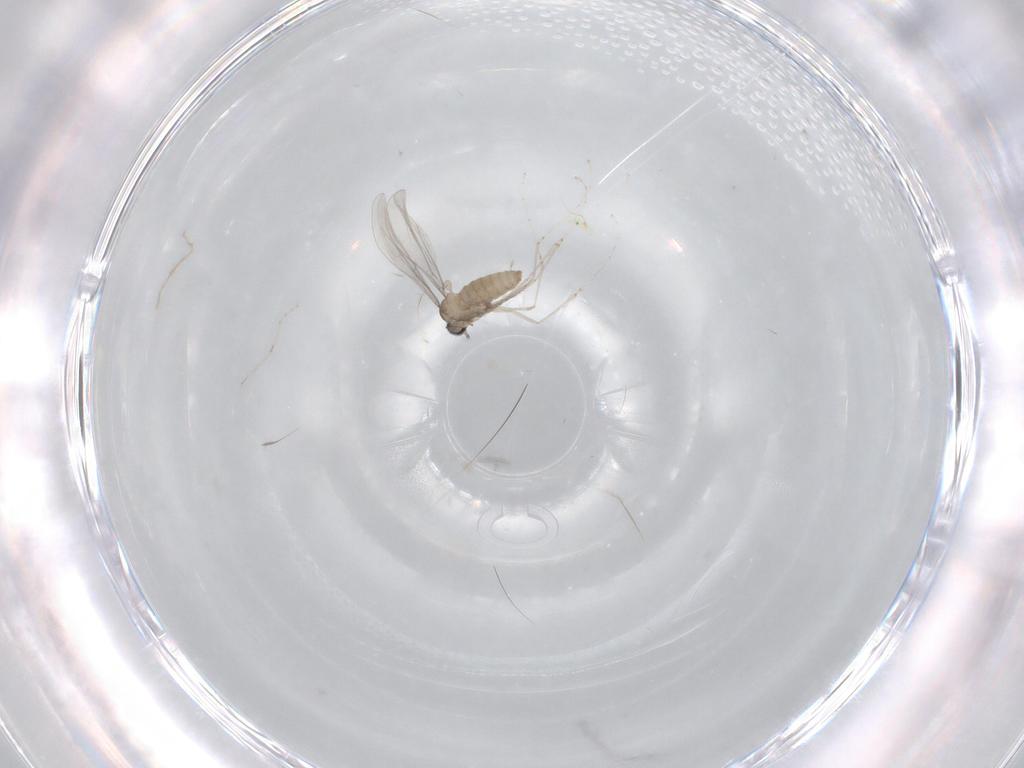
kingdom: Animalia
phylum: Arthropoda
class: Insecta
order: Diptera
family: Cecidomyiidae
